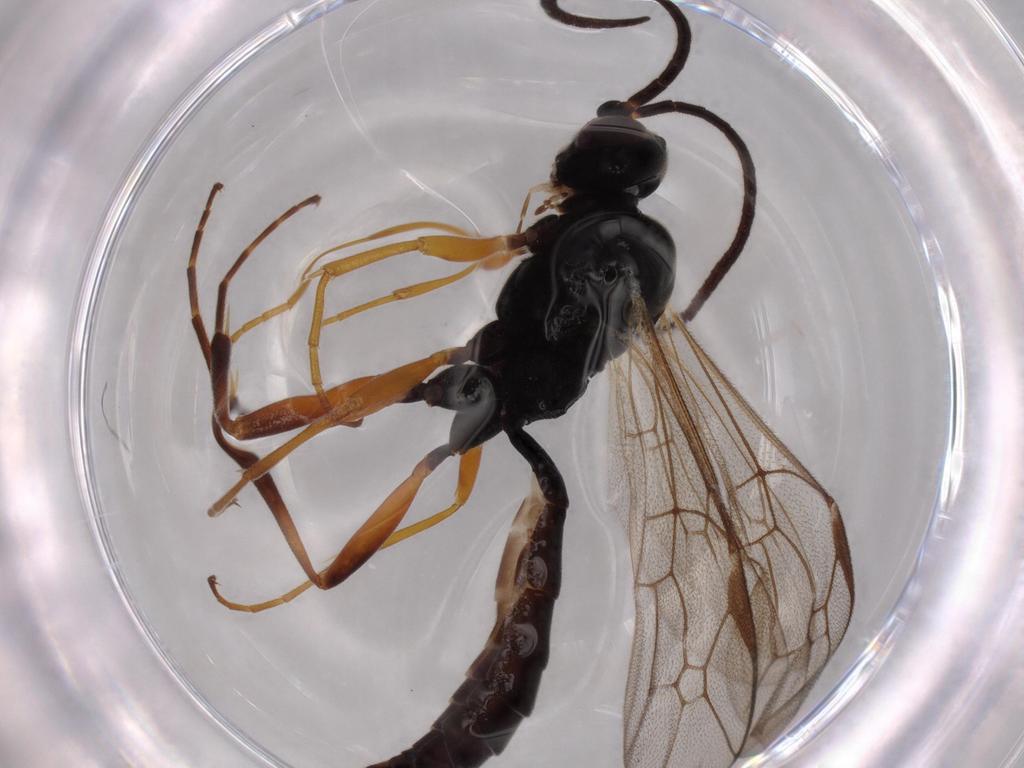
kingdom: Animalia
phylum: Arthropoda
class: Insecta
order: Hymenoptera
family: Ichneumonidae
